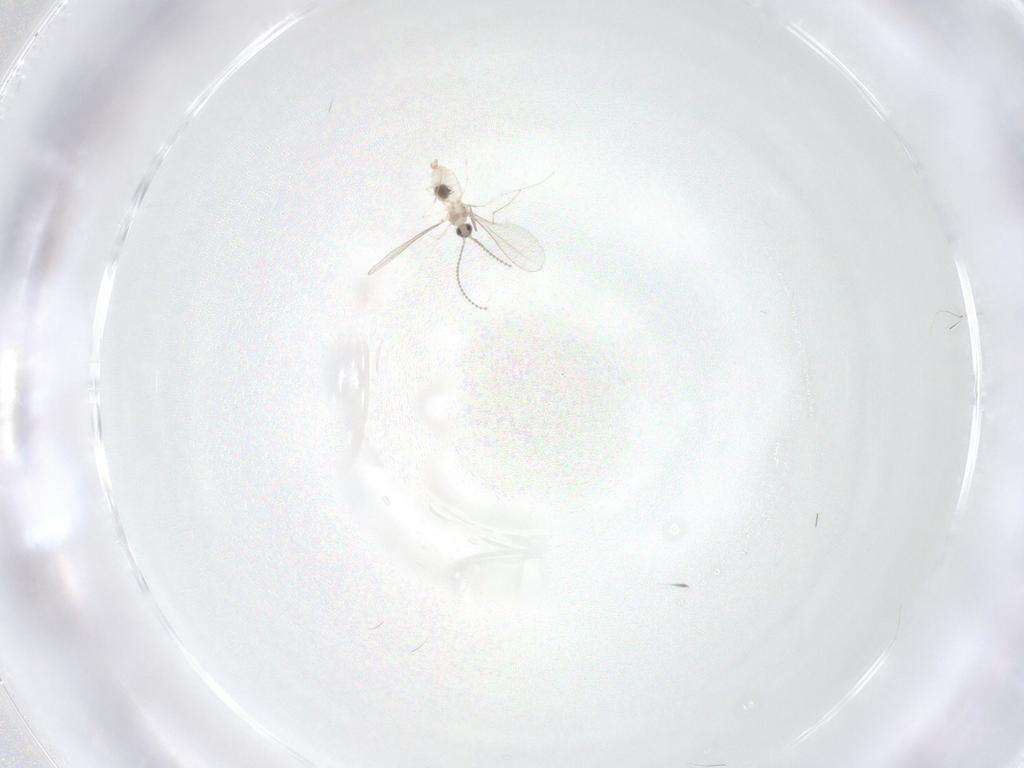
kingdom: Animalia
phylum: Arthropoda
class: Insecta
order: Diptera
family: Cecidomyiidae
